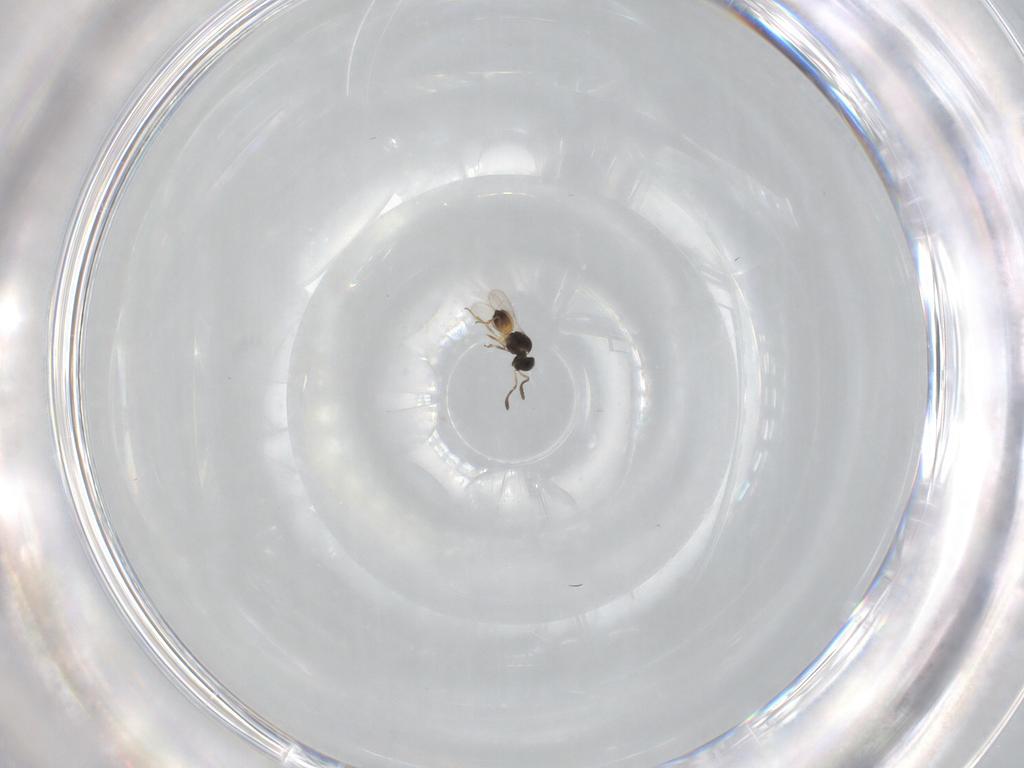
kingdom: Animalia
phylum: Arthropoda
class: Insecta
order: Hymenoptera
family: Scelionidae
